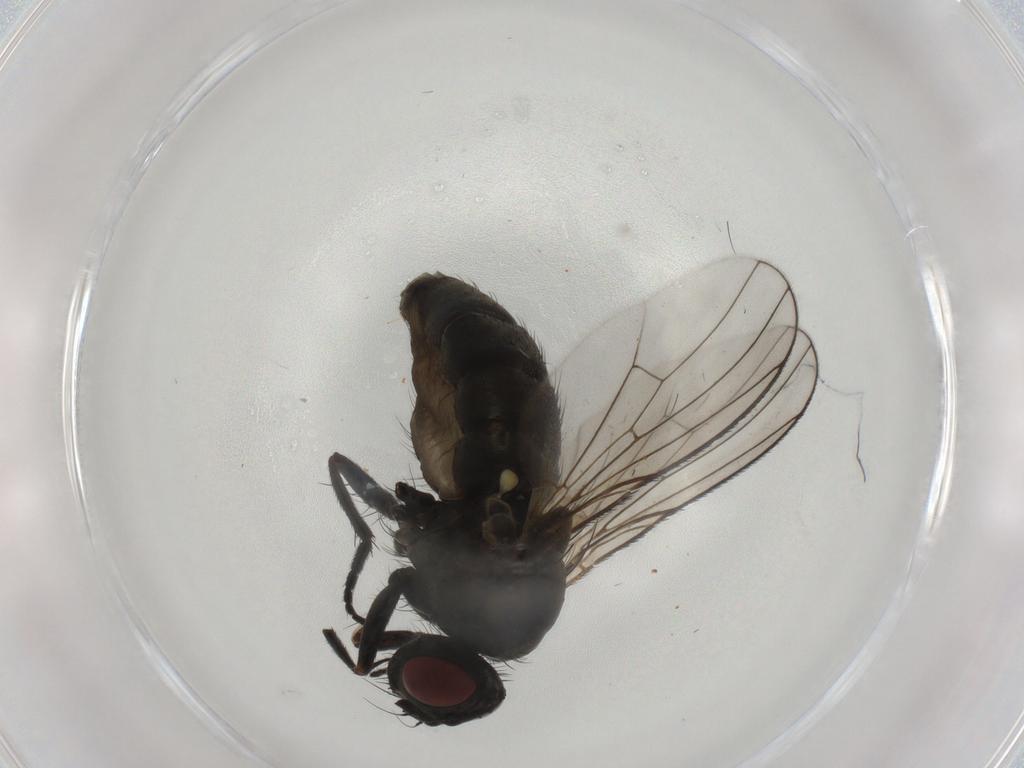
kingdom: Animalia
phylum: Arthropoda
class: Insecta
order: Diptera
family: Muscidae
